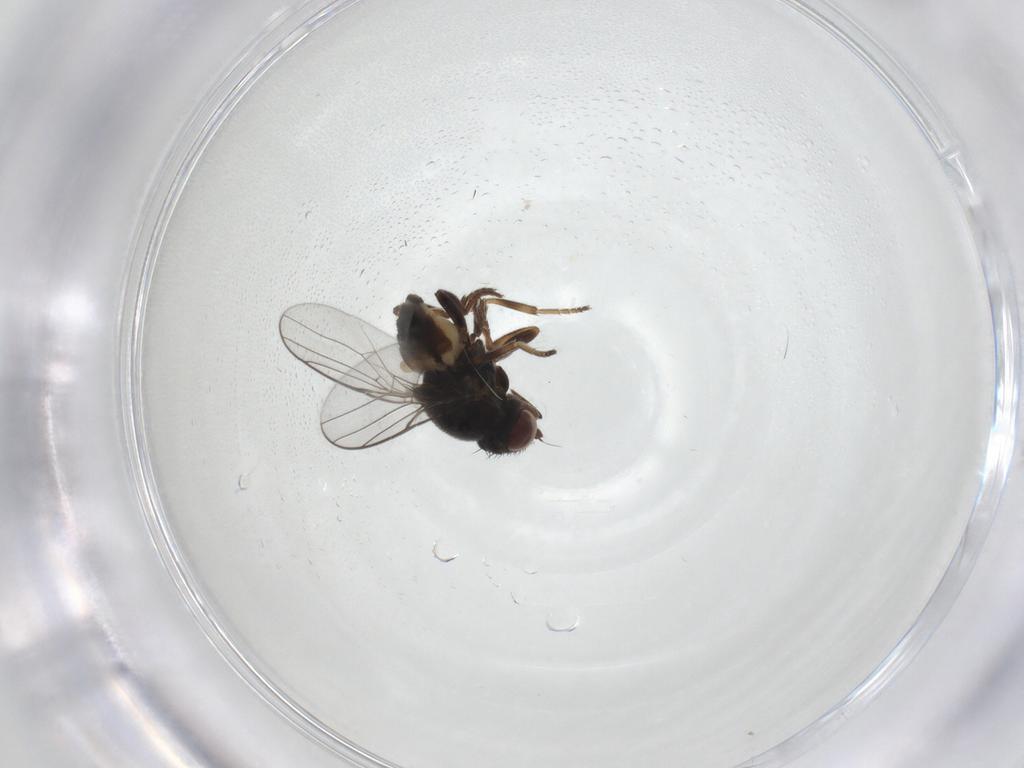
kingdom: Animalia
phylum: Arthropoda
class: Insecta
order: Diptera
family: Chloropidae
